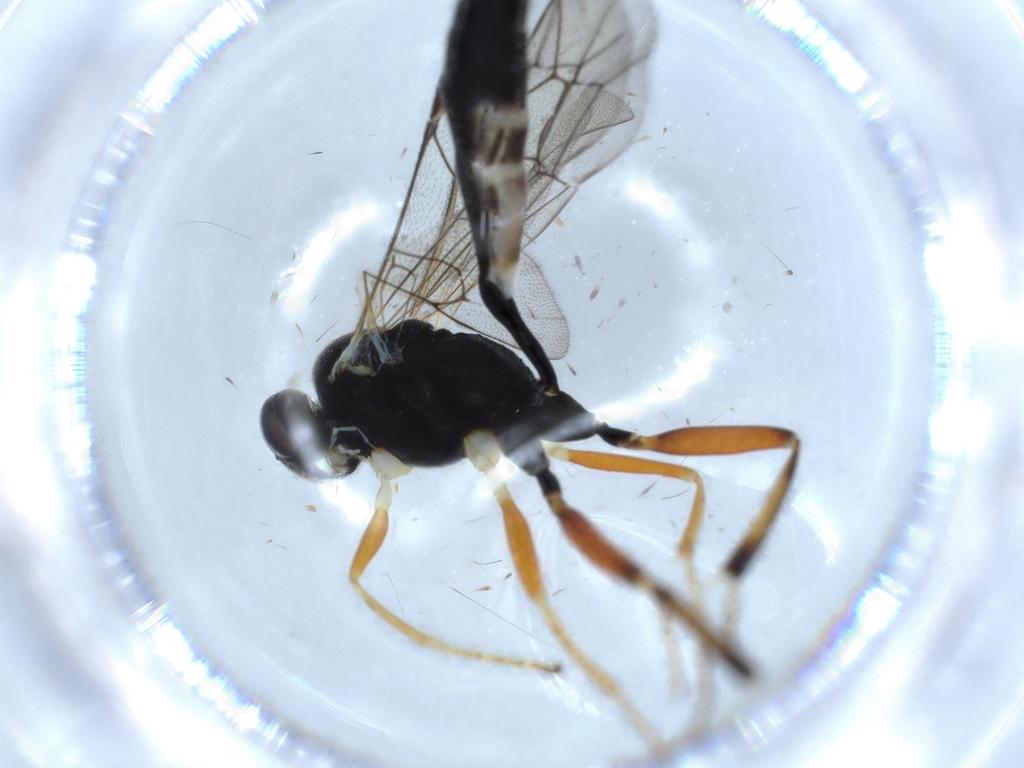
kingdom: Animalia
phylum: Arthropoda
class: Insecta
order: Hymenoptera
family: Ichneumonidae
